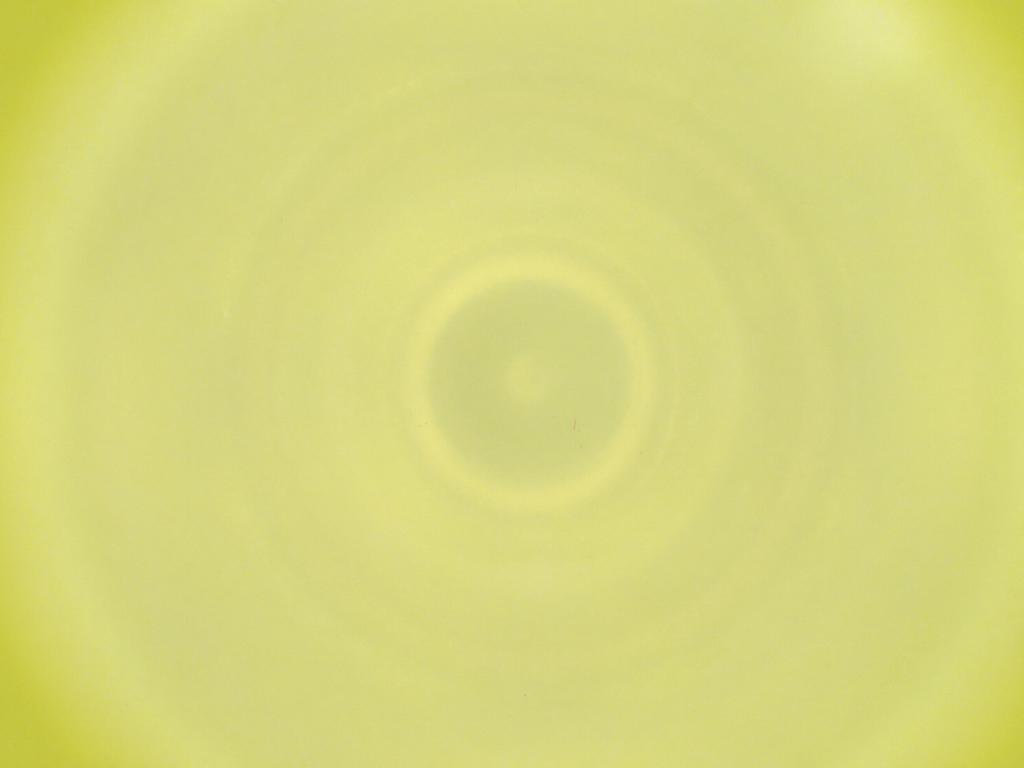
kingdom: Animalia
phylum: Arthropoda
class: Insecta
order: Diptera
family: Cecidomyiidae
